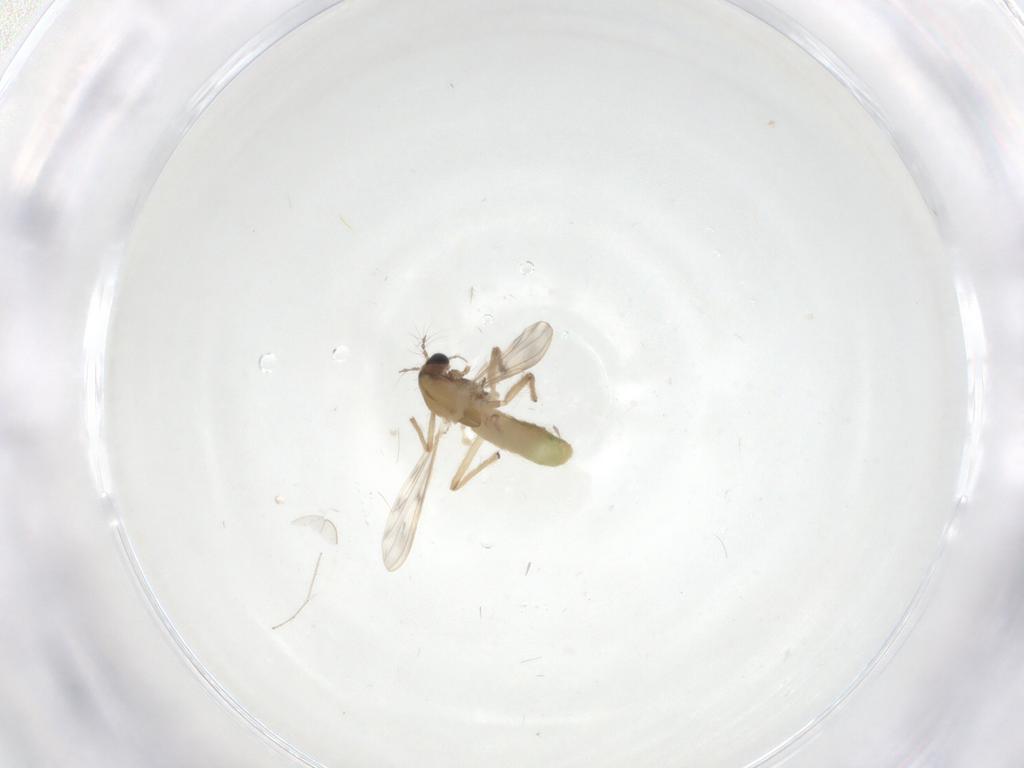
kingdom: Animalia
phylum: Arthropoda
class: Insecta
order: Diptera
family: Chironomidae
